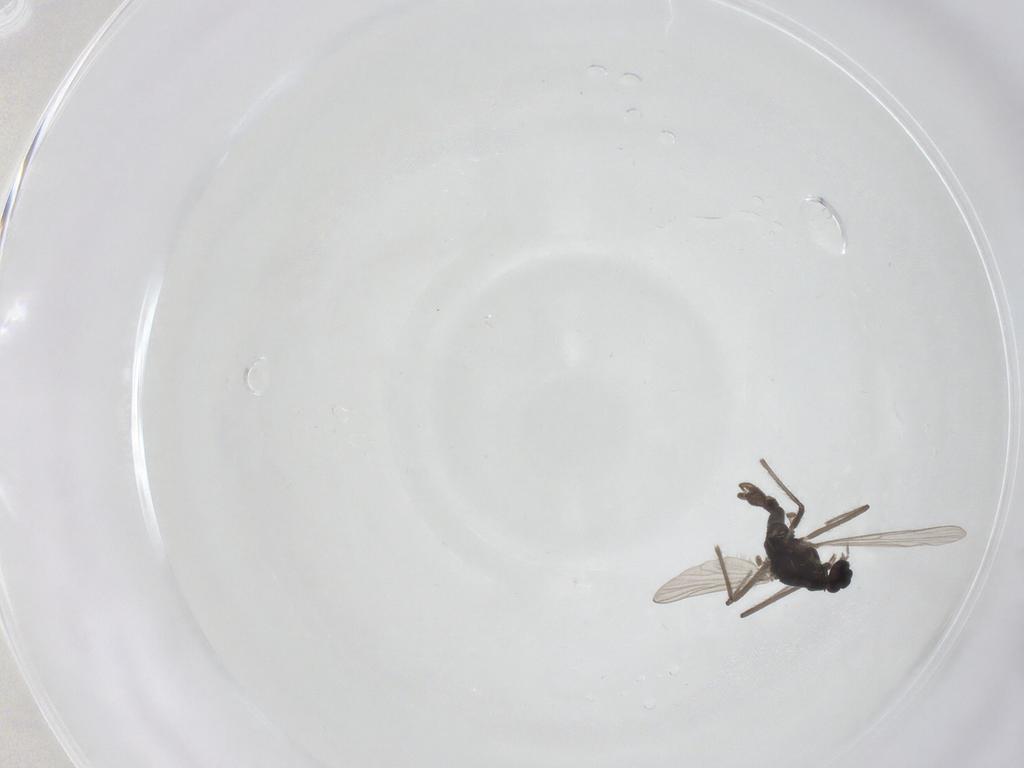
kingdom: Animalia
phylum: Arthropoda
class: Insecta
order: Diptera
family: Chironomidae
